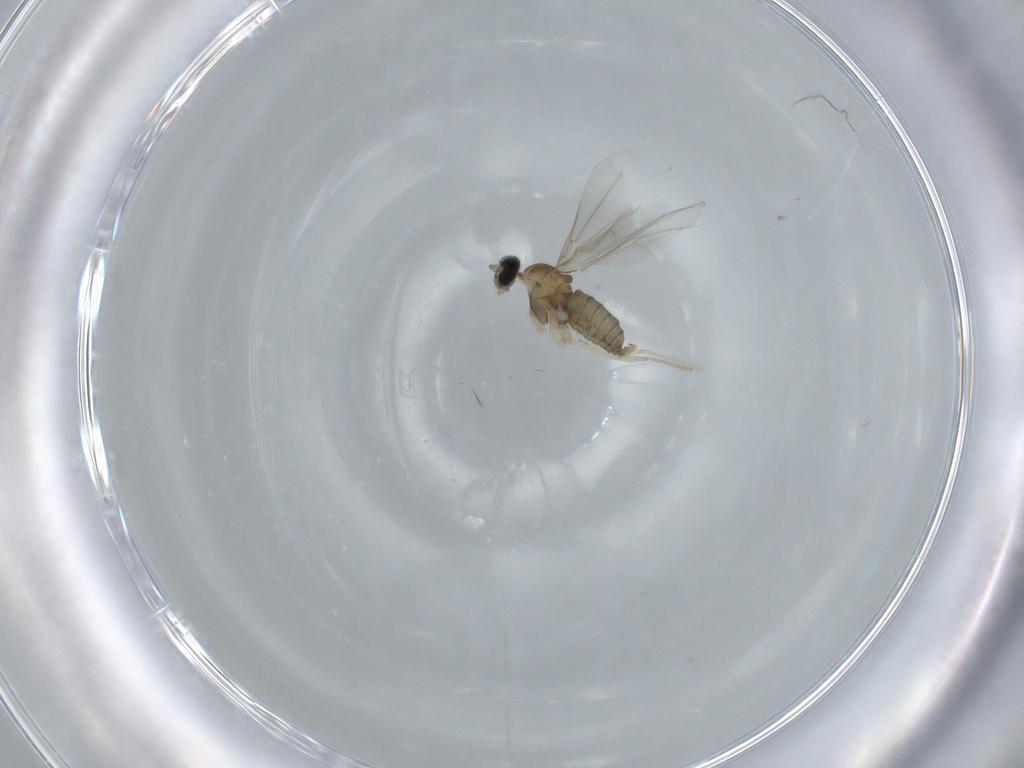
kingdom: Animalia
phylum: Arthropoda
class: Insecta
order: Diptera
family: Cecidomyiidae
